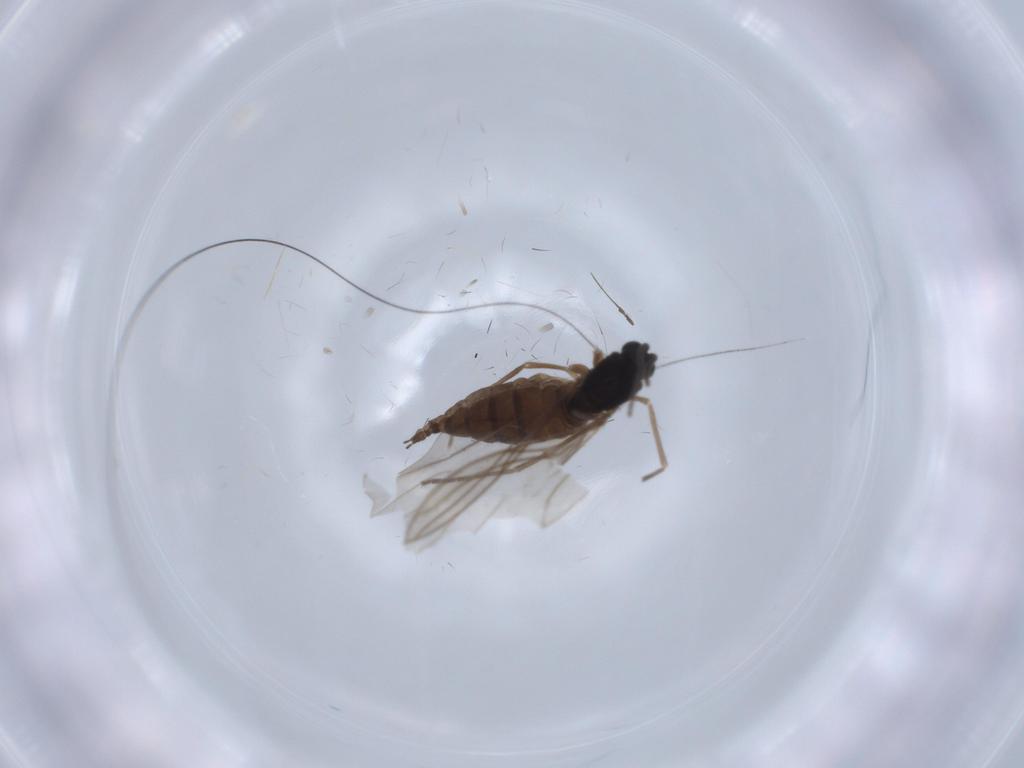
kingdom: Animalia
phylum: Arthropoda
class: Insecta
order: Diptera
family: Sciaridae
